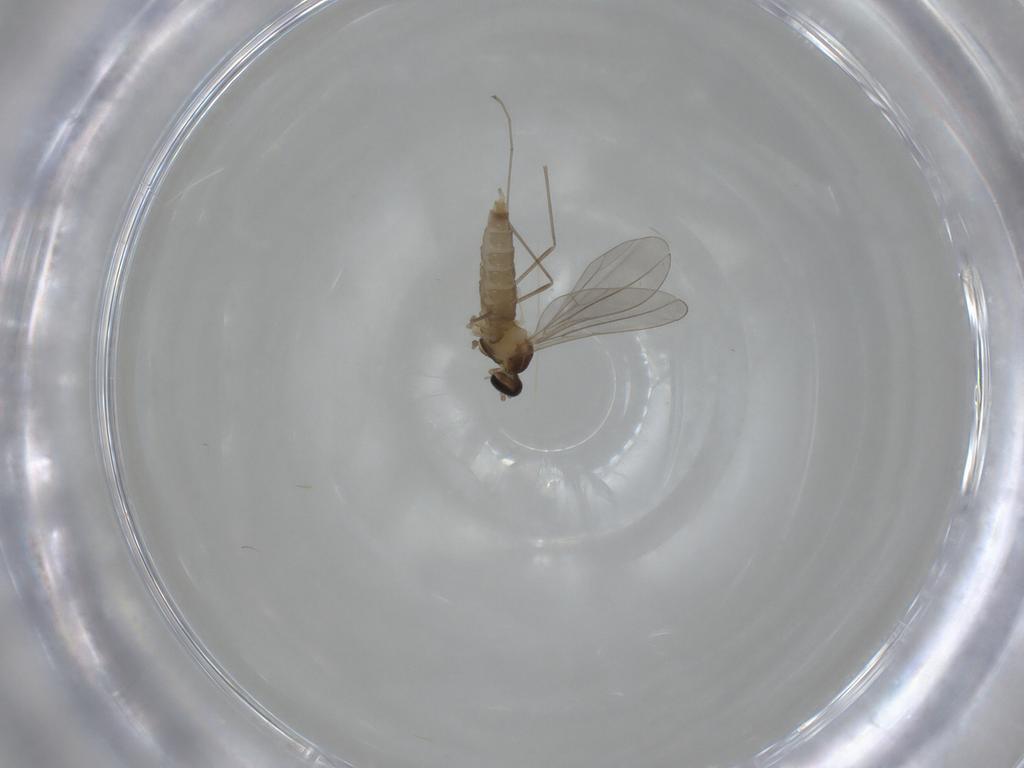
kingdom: Animalia
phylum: Arthropoda
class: Insecta
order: Diptera
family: Cecidomyiidae
